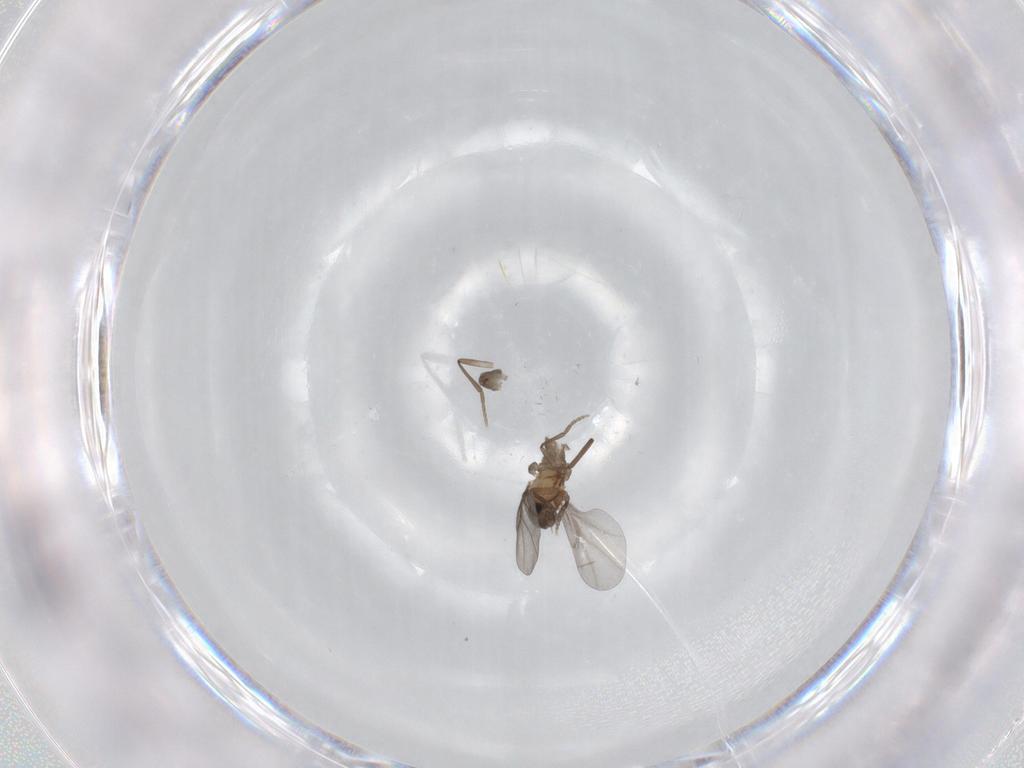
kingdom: Animalia
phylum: Arthropoda
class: Insecta
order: Diptera
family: Phoridae
